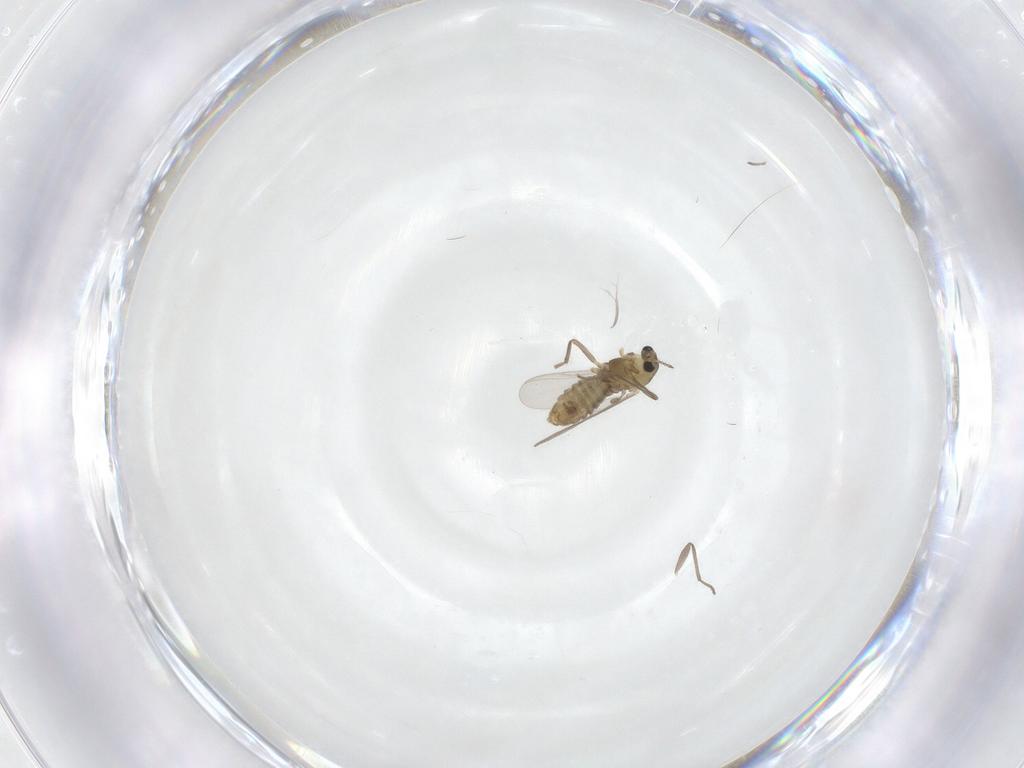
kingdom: Animalia
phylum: Arthropoda
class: Insecta
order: Diptera
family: Chironomidae
